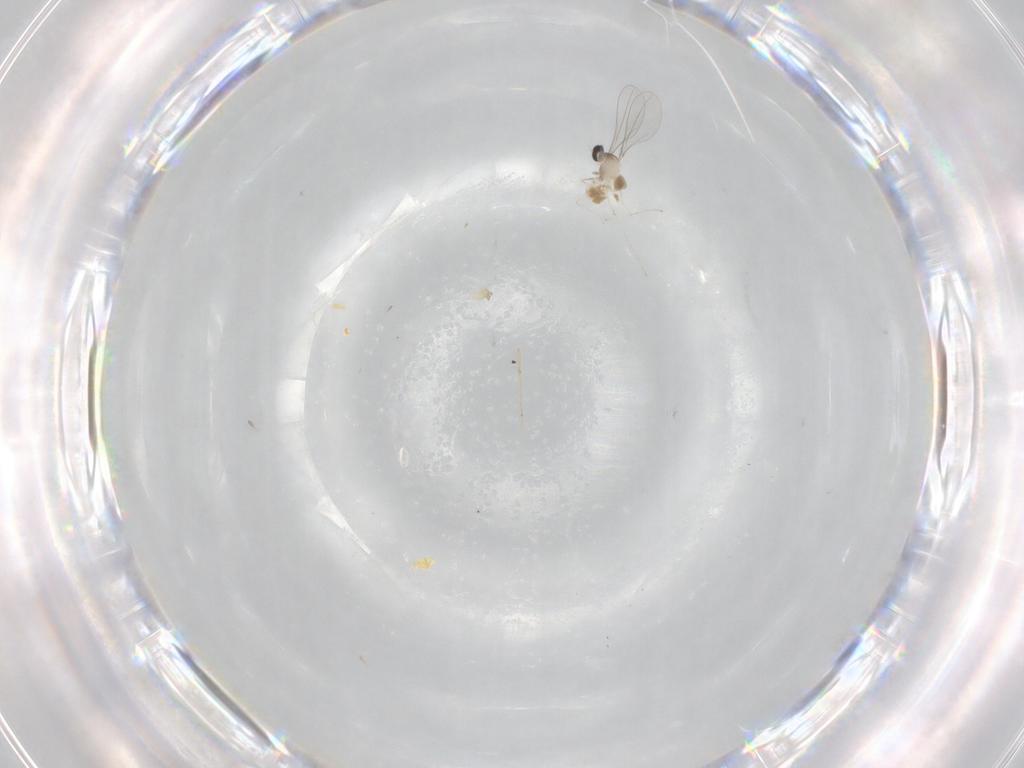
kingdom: Animalia
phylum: Arthropoda
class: Insecta
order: Diptera
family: Cecidomyiidae
